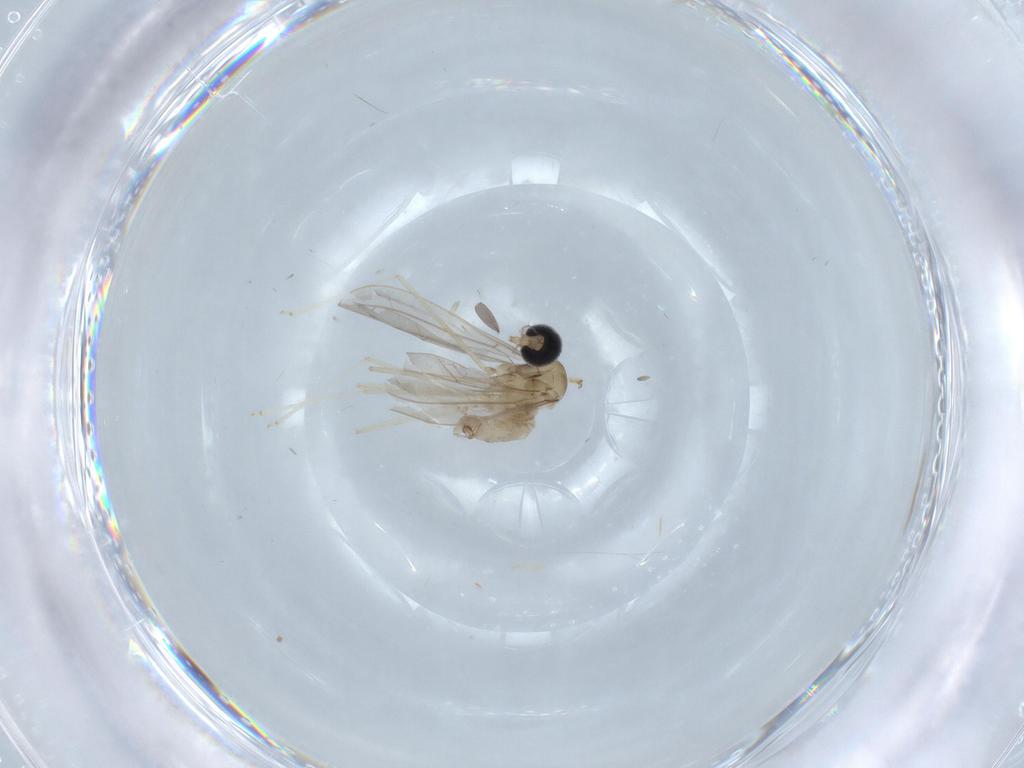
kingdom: Animalia
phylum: Arthropoda
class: Insecta
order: Diptera
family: Cecidomyiidae
